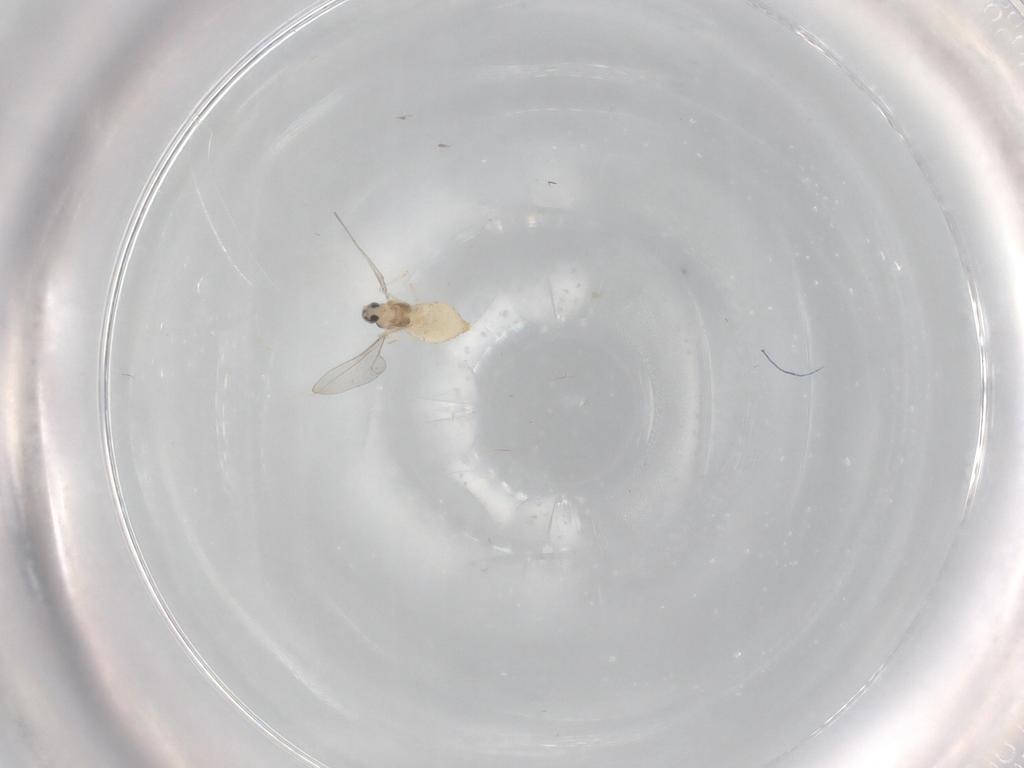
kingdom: Animalia
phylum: Arthropoda
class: Insecta
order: Diptera
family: Cecidomyiidae
